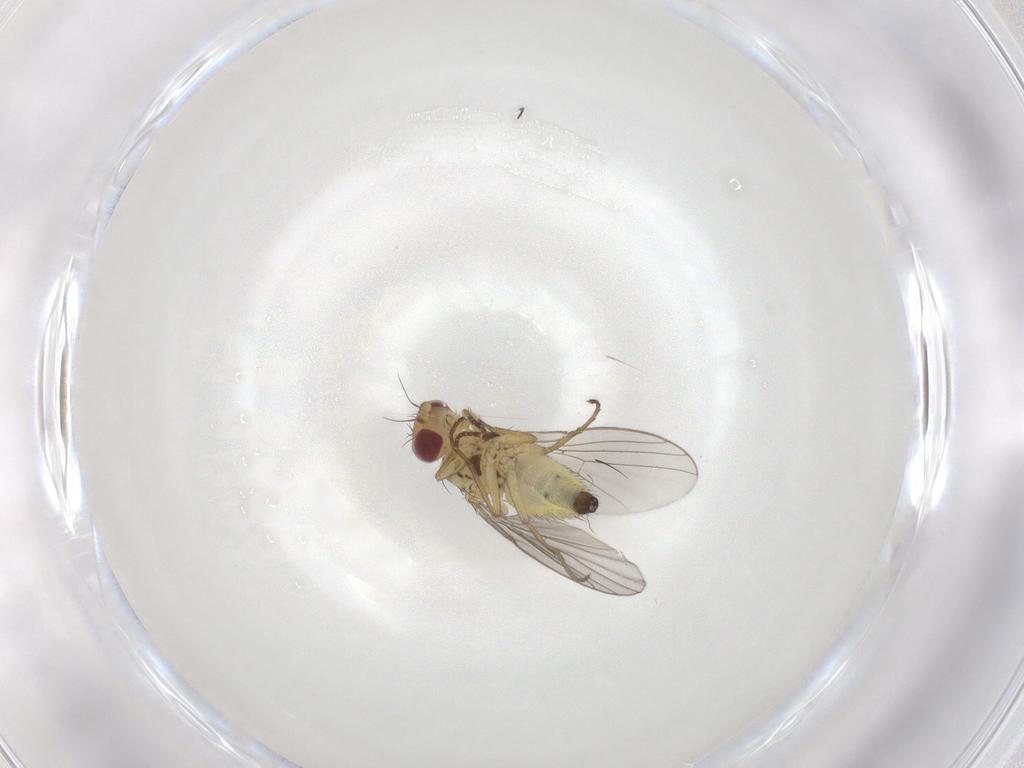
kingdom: Animalia
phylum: Arthropoda
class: Insecta
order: Diptera
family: Agromyzidae
